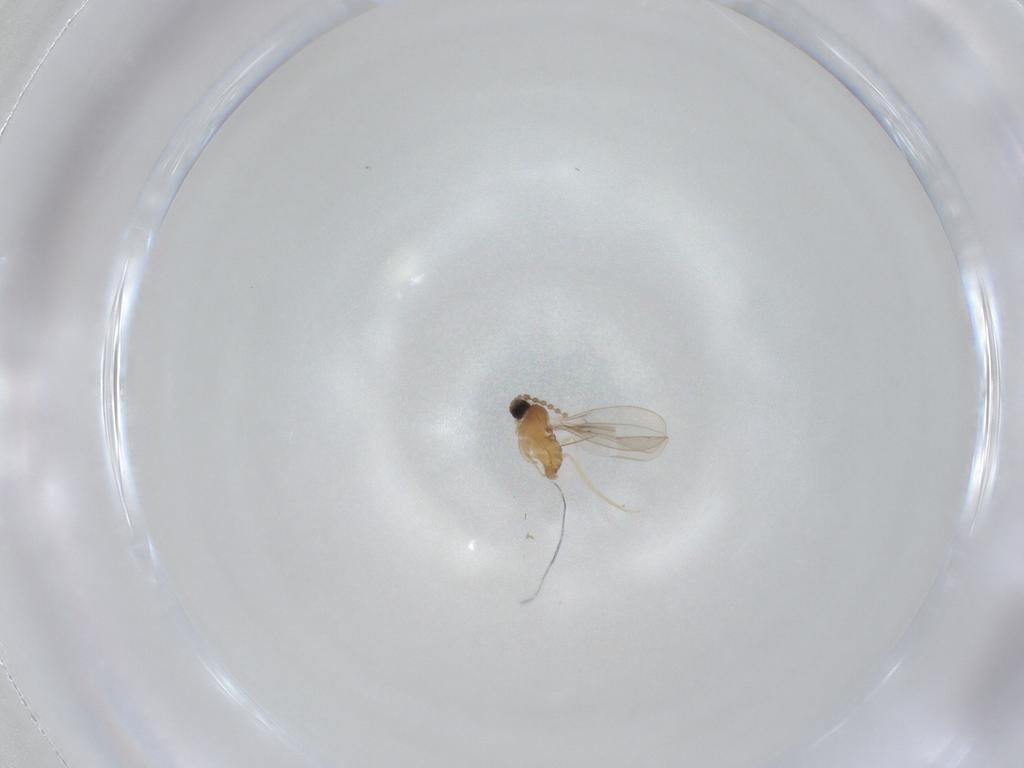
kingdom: Animalia
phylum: Arthropoda
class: Insecta
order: Diptera
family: Cecidomyiidae
